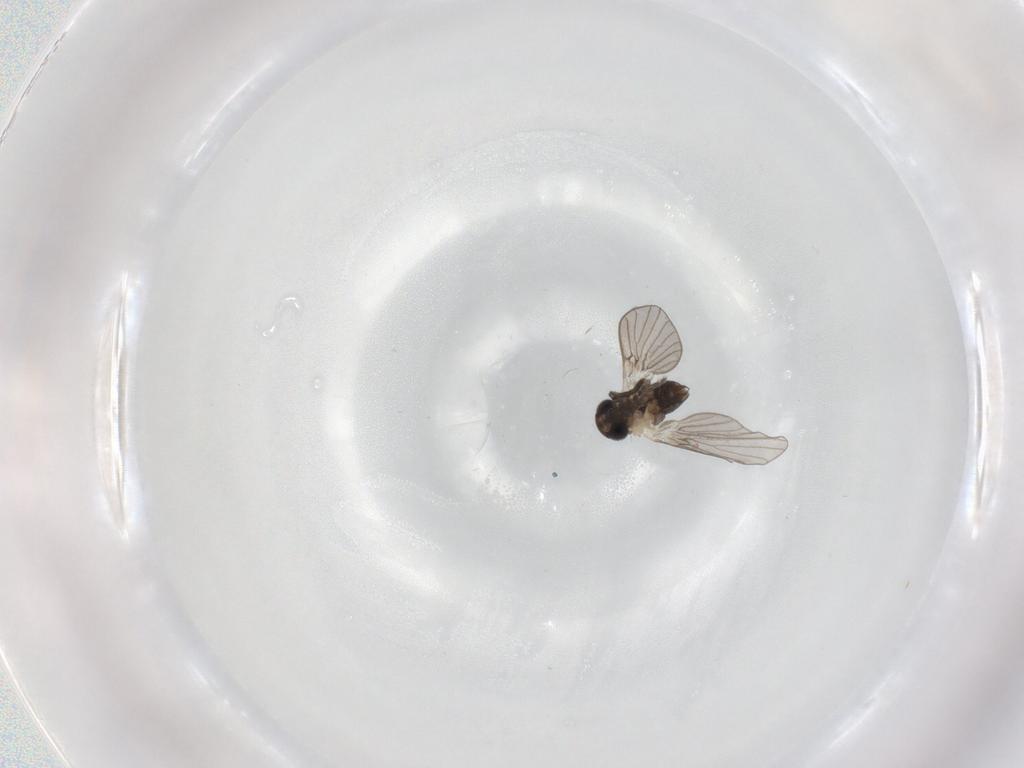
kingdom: Animalia
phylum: Arthropoda
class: Insecta
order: Diptera
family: Psychodidae
